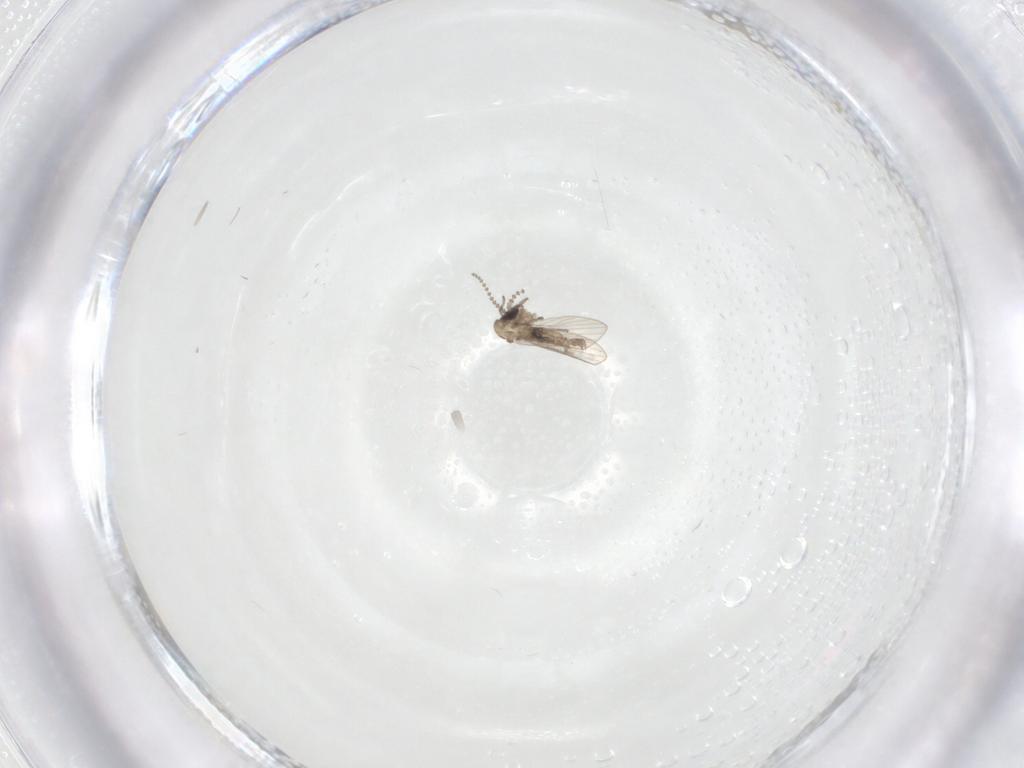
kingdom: Animalia
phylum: Arthropoda
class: Insecta
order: Diptera
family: Psychodidae
